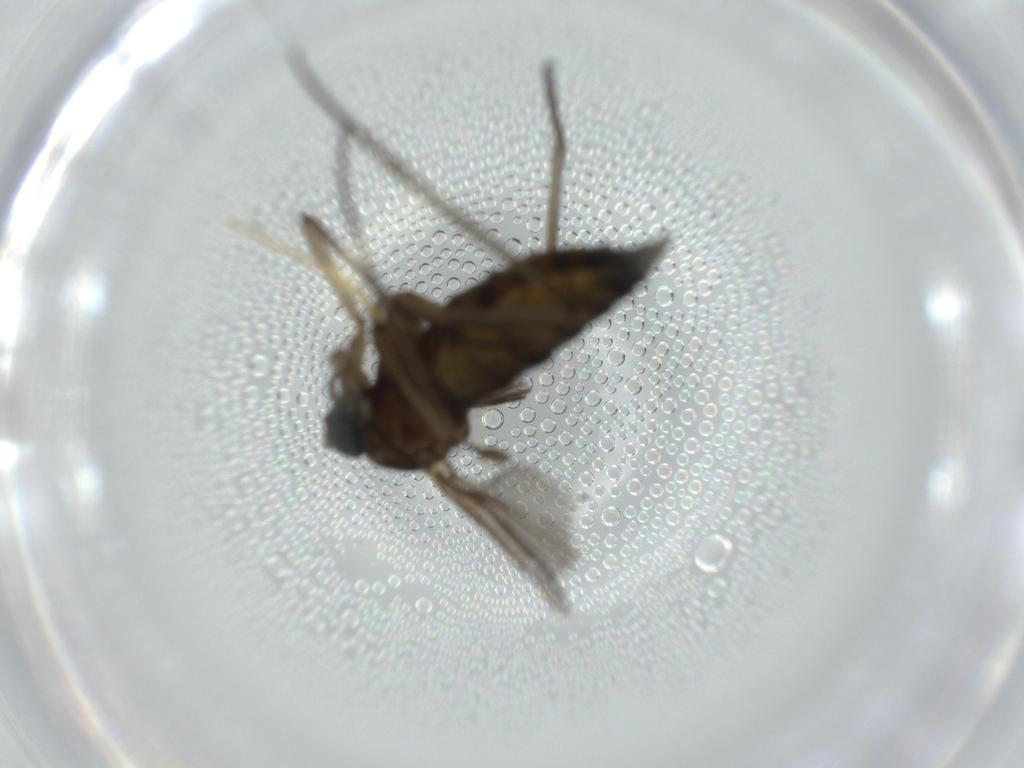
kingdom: Animalia
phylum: Arthropoda
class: Insecta
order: Diptera
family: Sciaridae
